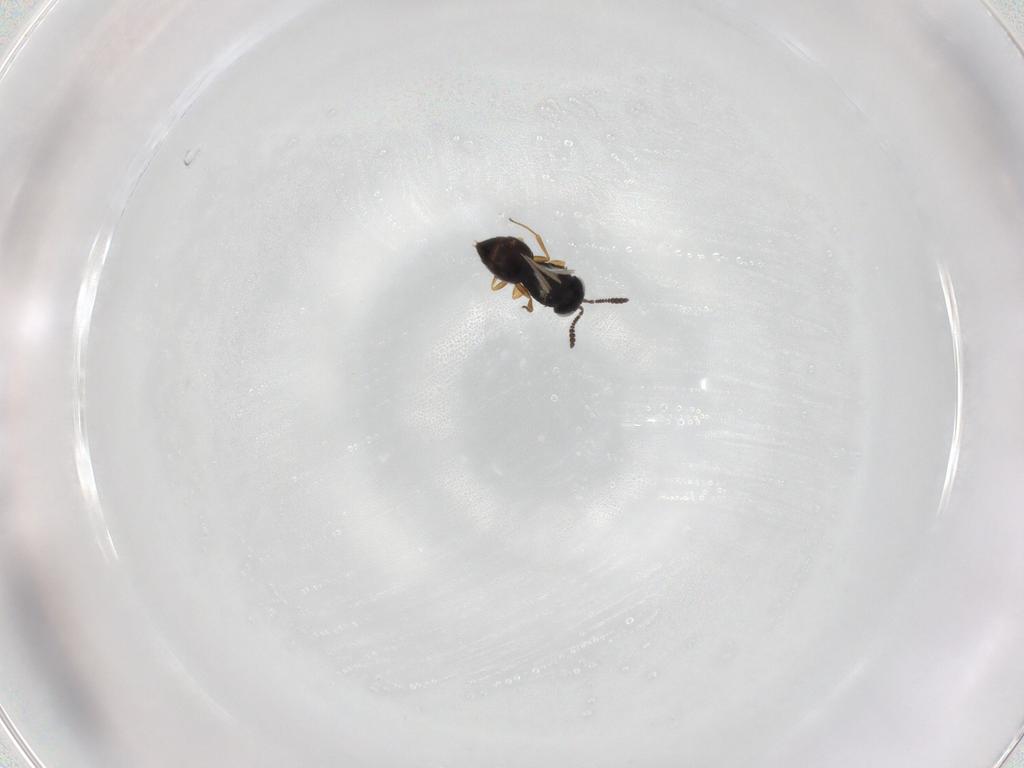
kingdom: Animalia
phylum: Arthropoda
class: Insecta
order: Hymenoptera
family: Scelionidae
